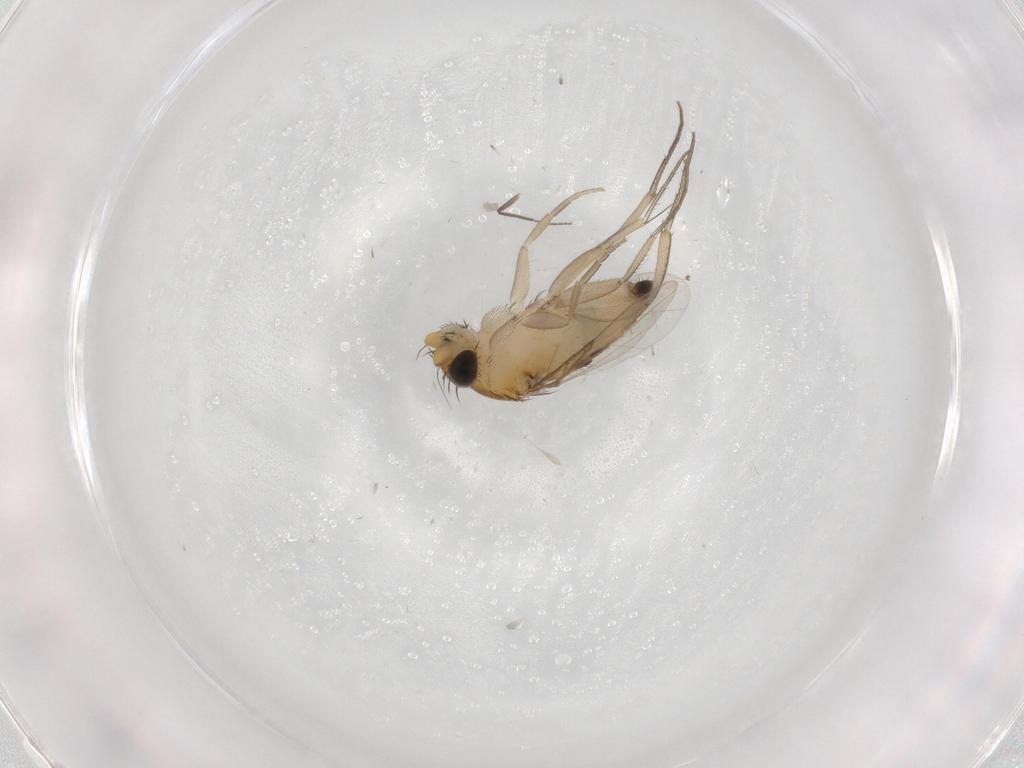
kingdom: Animalia
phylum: Arthropoda
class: Insecta
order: Diptera
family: Phoridae
